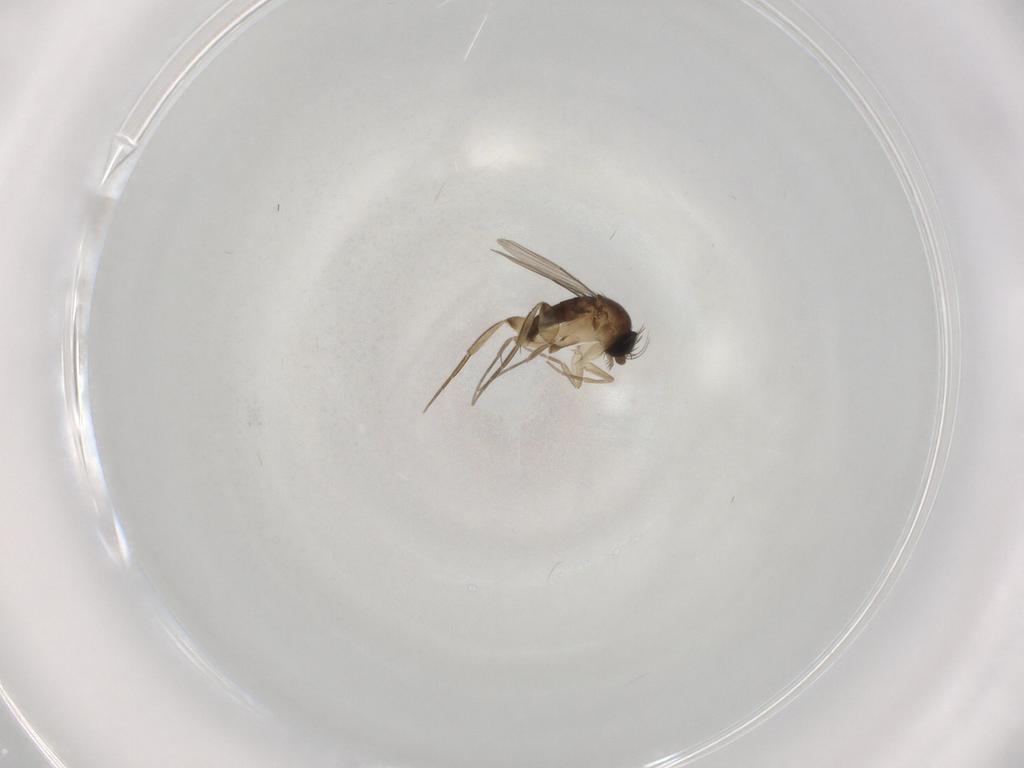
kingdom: Animalia
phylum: Arthropoda
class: Insecta
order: Diptera
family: Phoridae
